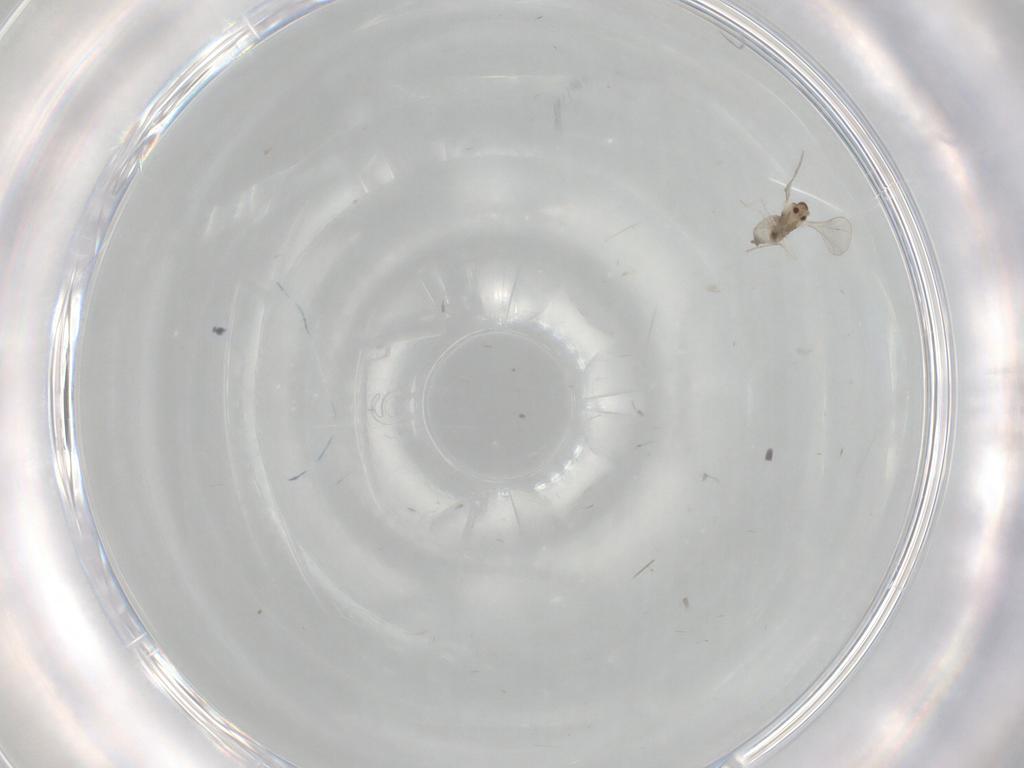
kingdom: Animalia
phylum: Arthropoda
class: Insecta
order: Diptera
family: Cecidomyiidae
